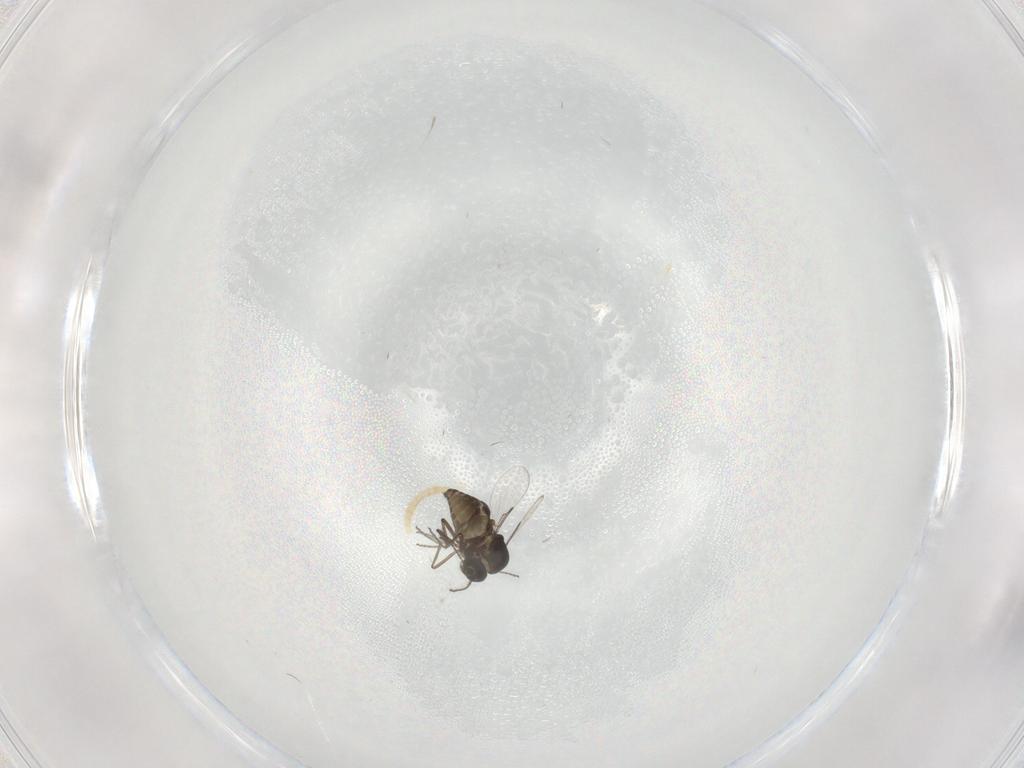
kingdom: Animalia
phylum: Arthropoda
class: Insecta
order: Diptera
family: Ceratopogonidae
